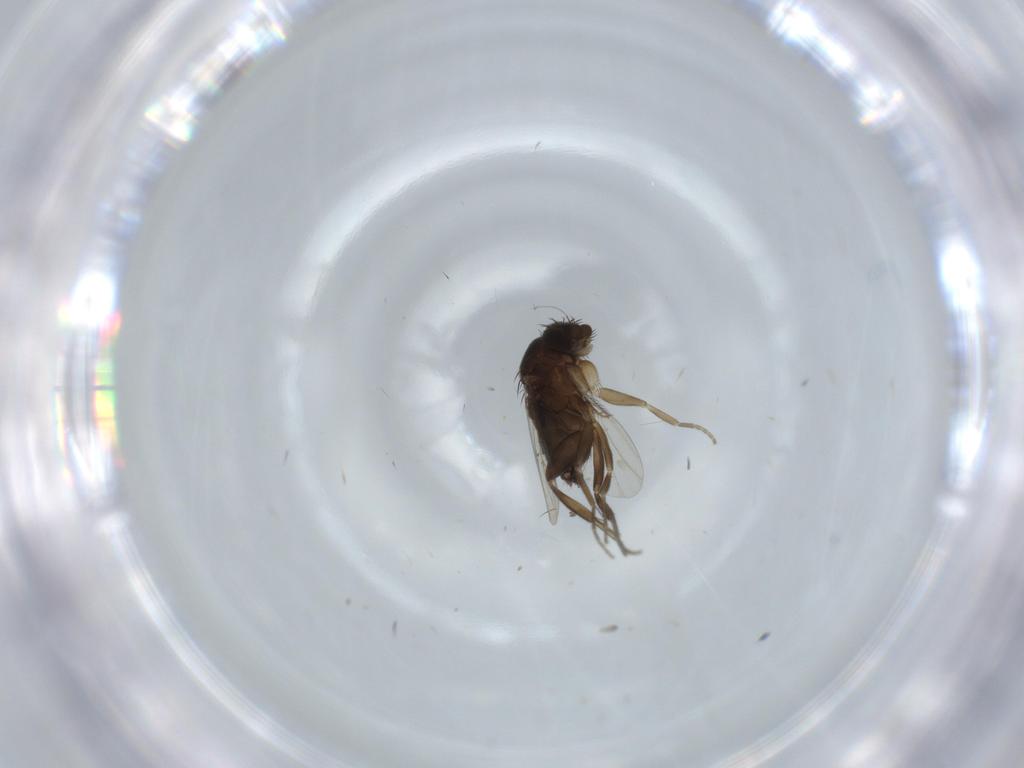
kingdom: Animalia
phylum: Arthropoda
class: Insecta
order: Diptera
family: Phoridae
